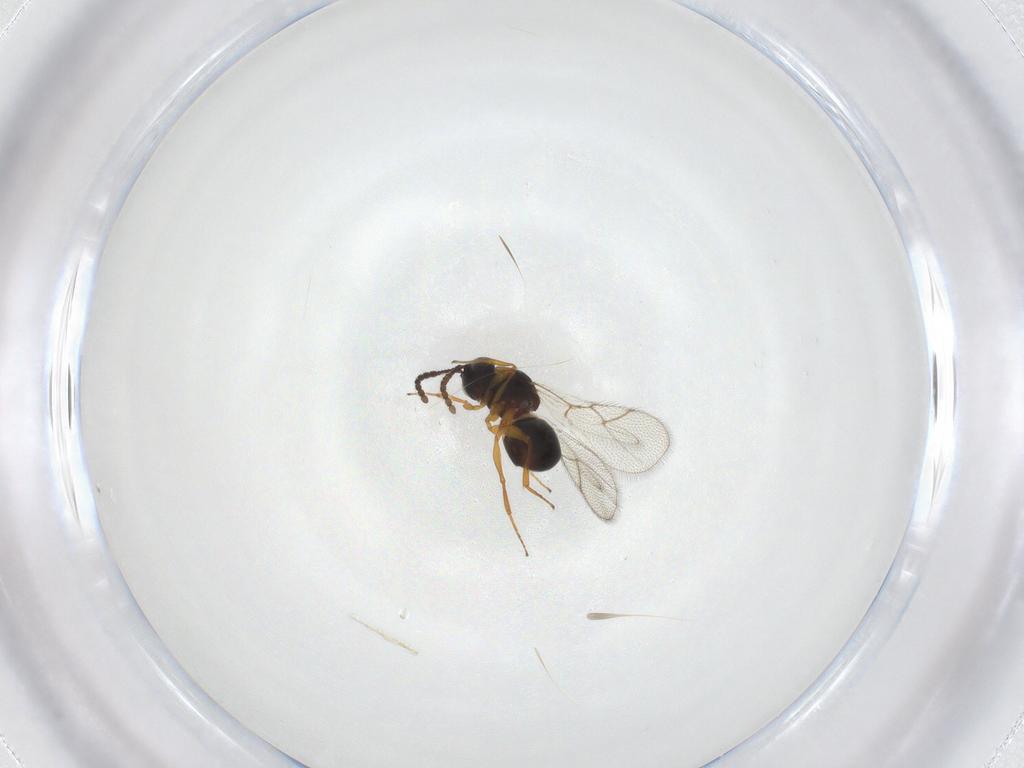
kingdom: Animalia
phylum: Arthropoda
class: Insecta
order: Hymenoptera
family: Figitidae
